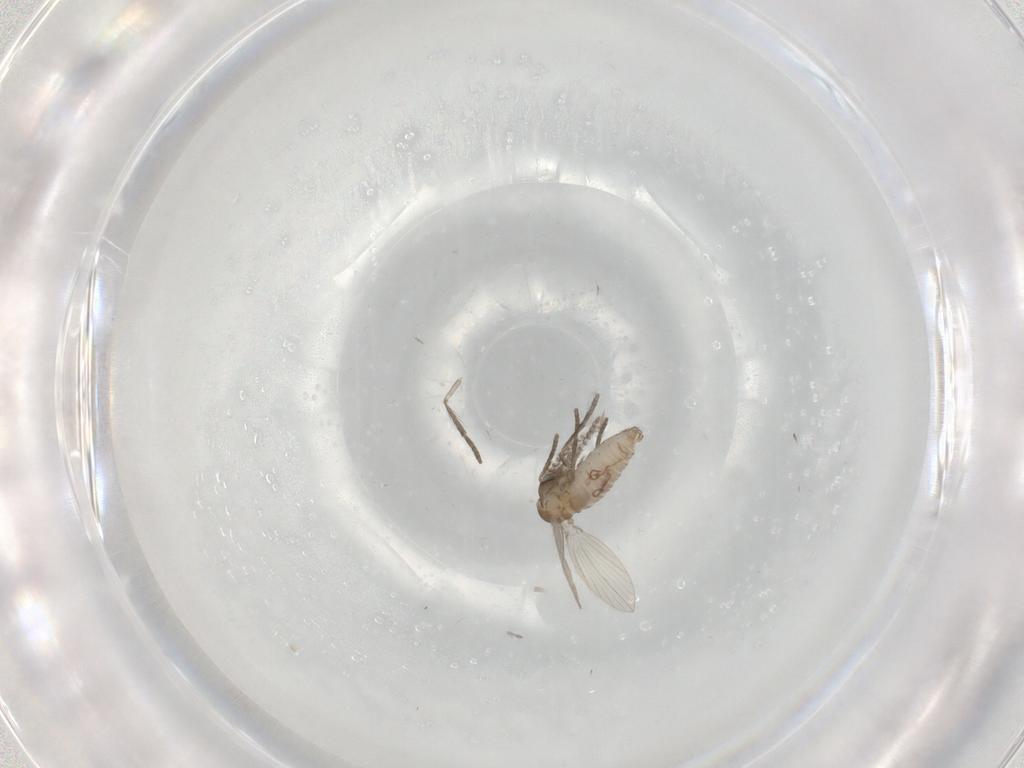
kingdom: Animalia
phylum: Arthropoda
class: Insecta
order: Diptera
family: Psychodidae
